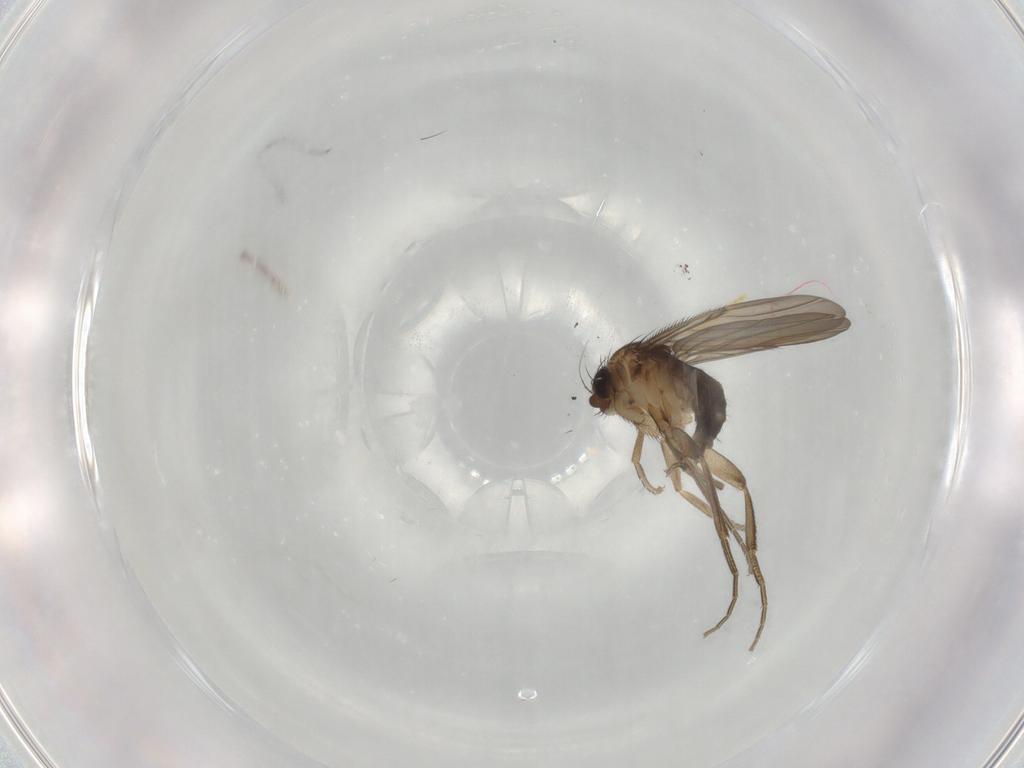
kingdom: Animalia
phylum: Arthropoda
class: Insecta
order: Diptera
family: Phoridae
